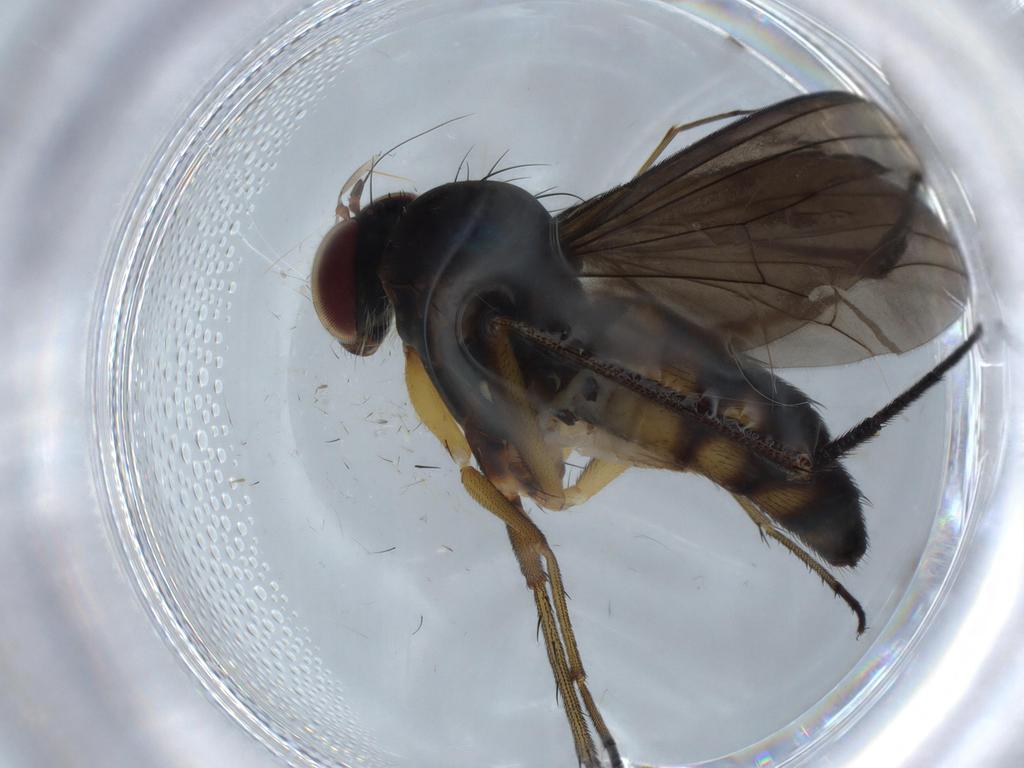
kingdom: Animalia
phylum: Arthropoda
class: Insecta
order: Diptera
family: Dolichopodidae
